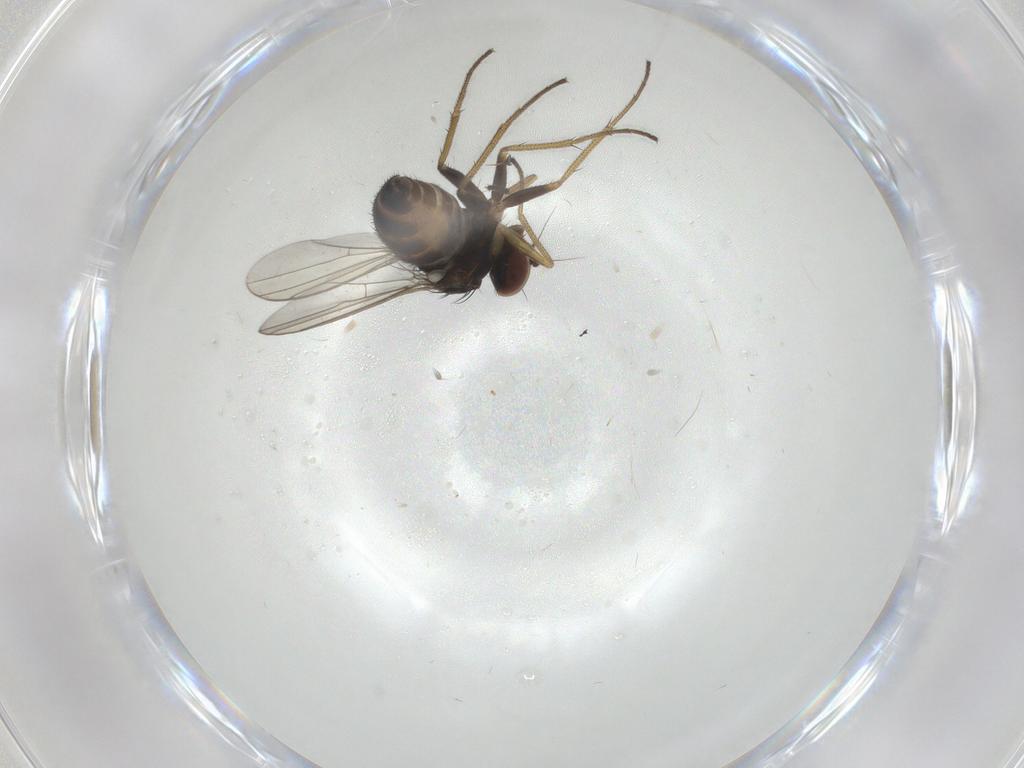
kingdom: Animalia
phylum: Arthropoda
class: Insecta
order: Diptera
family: Dolichopodidae
